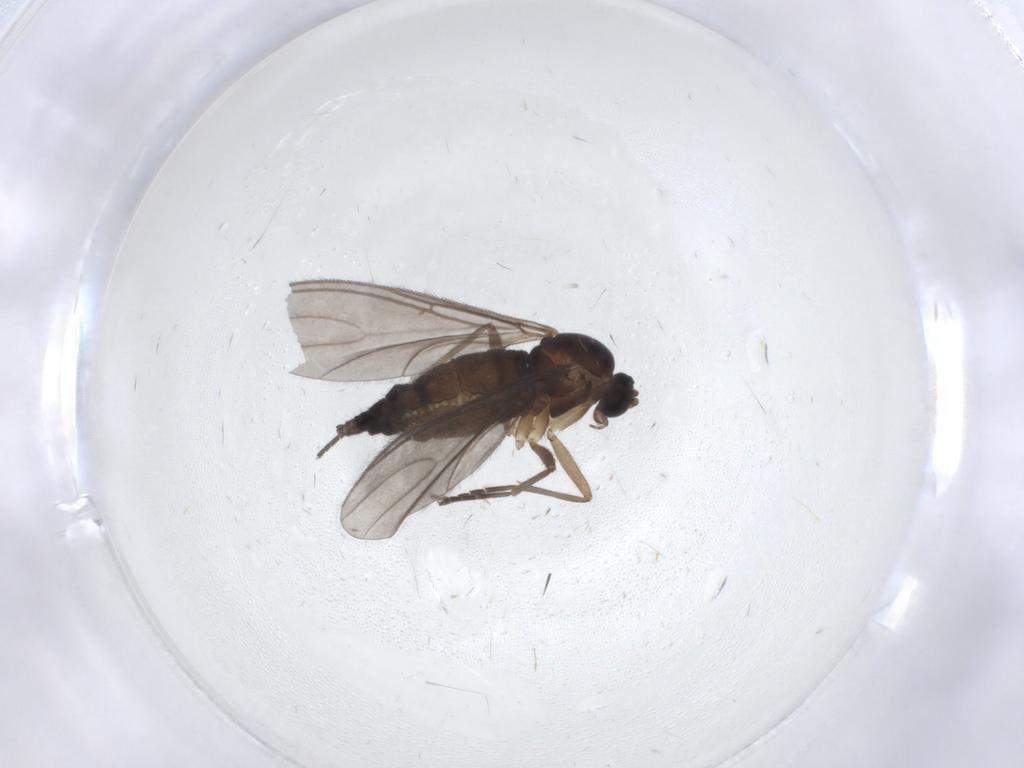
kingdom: Animalia
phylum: Arthropoda
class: Insecta
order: Diptera
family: Sciaridae
